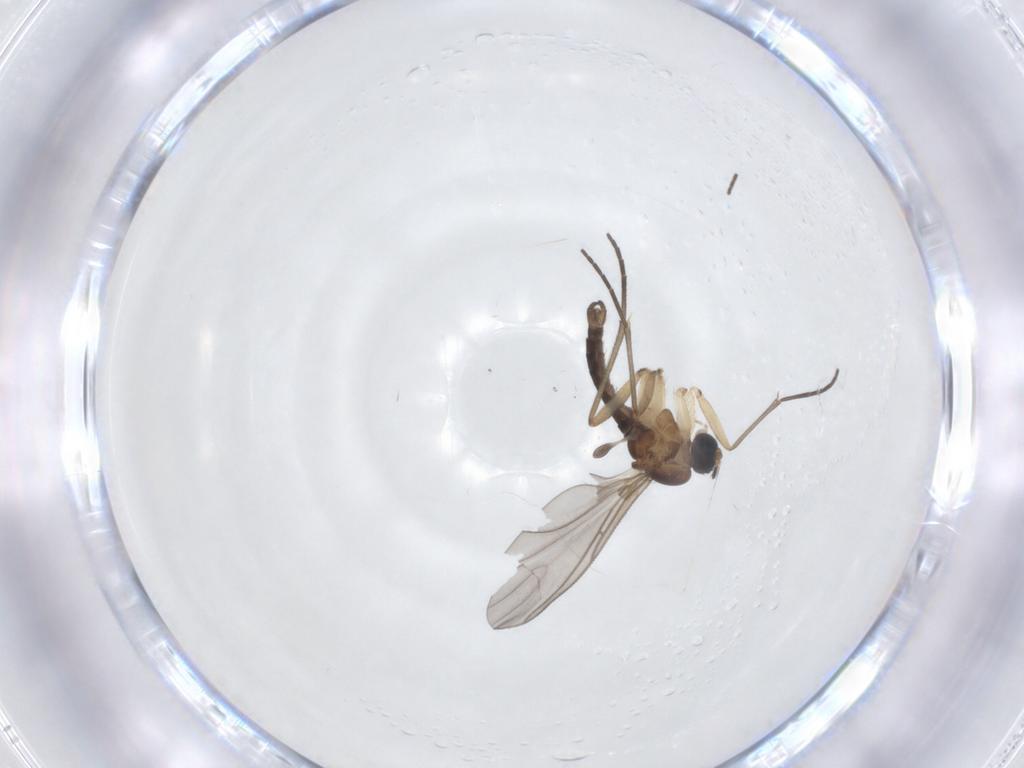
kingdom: Animalia
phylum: Arthropoda
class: Insecta
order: Diptera
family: Sciaridae
